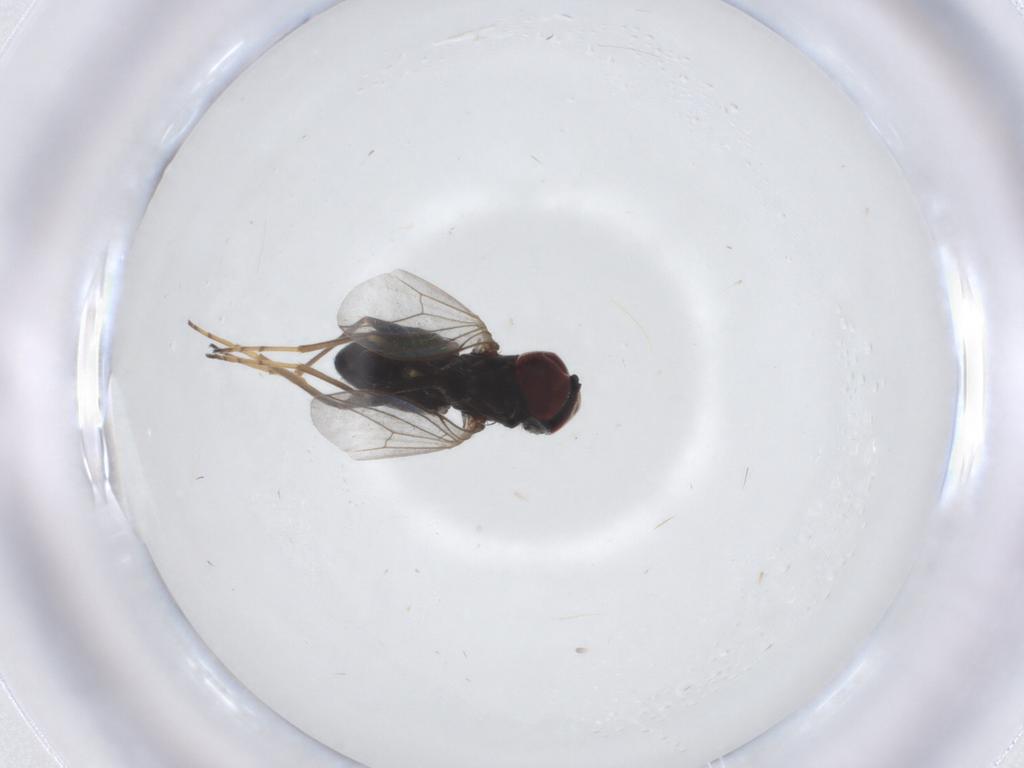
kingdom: Animalia
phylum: Arthropoda
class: Insecta
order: Diptera
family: Dolichopodidae
